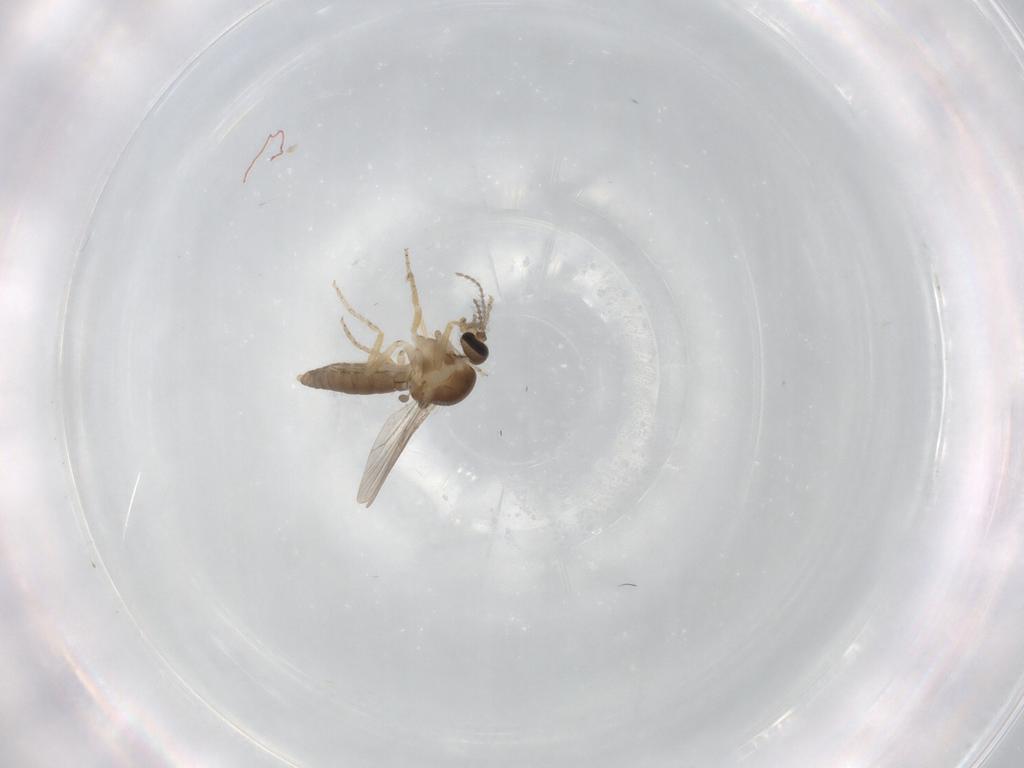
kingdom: Animalia
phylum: Arthropoda
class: Insecta
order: Diptera
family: Ceratopogonidae
